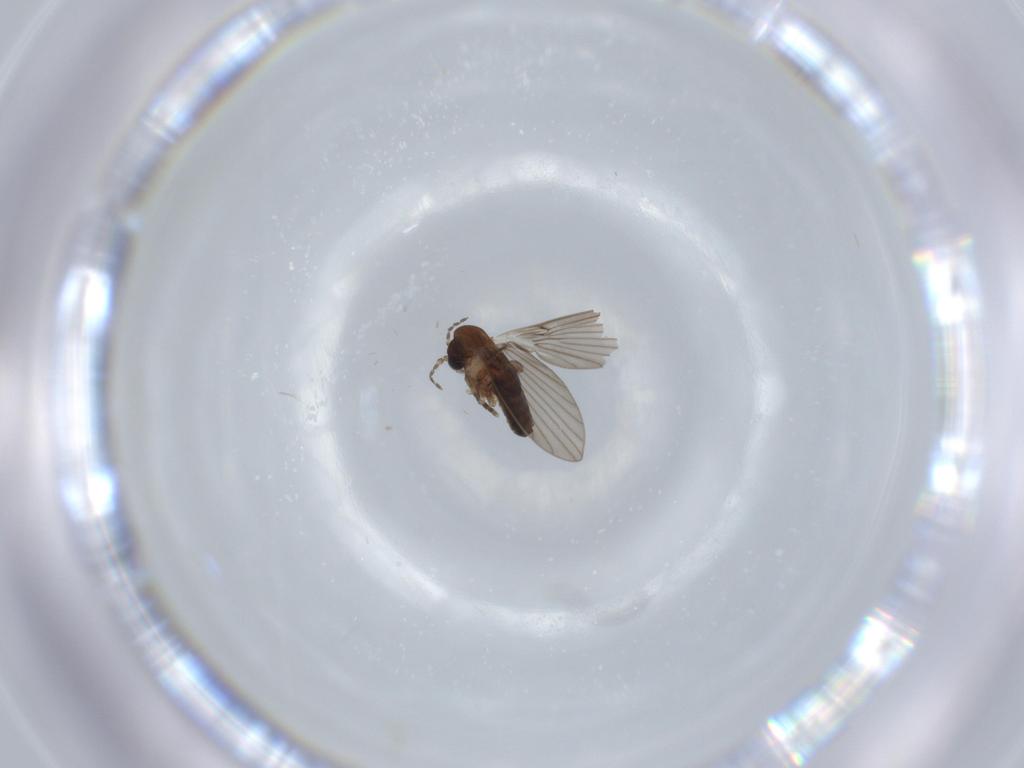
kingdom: Animalia
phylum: Arthropoda
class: Insecta
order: Diptera
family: Psychodidae
